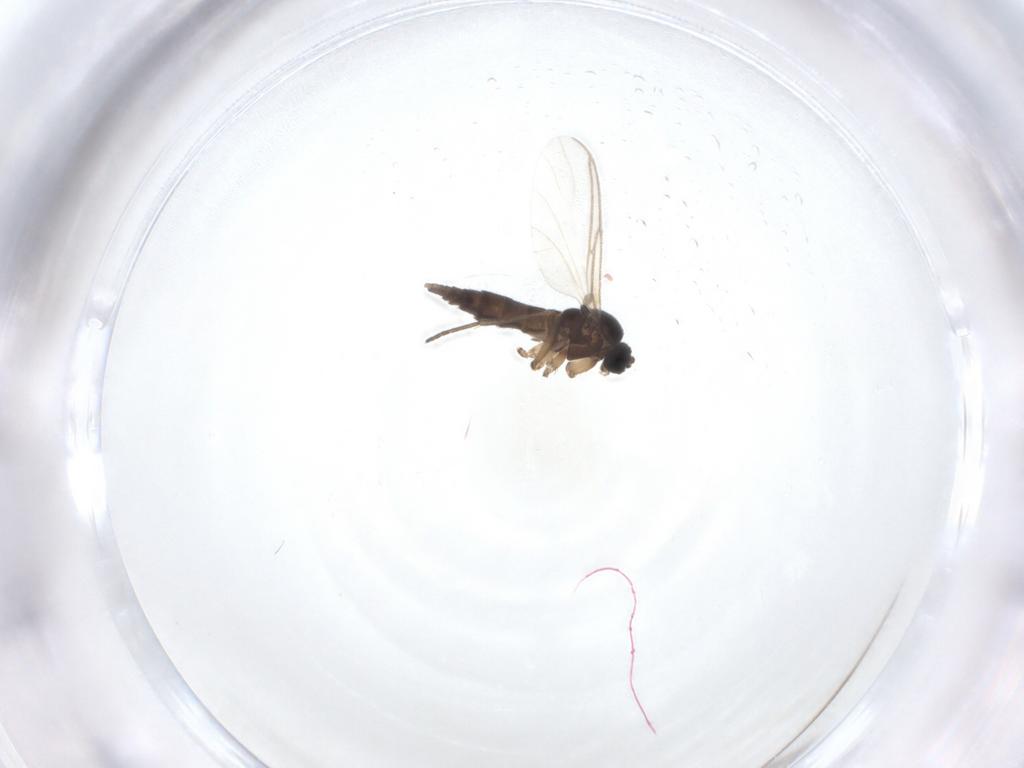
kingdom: Animalia
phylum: Arthropoda
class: Insecta
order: Diptera
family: Sciaridae
